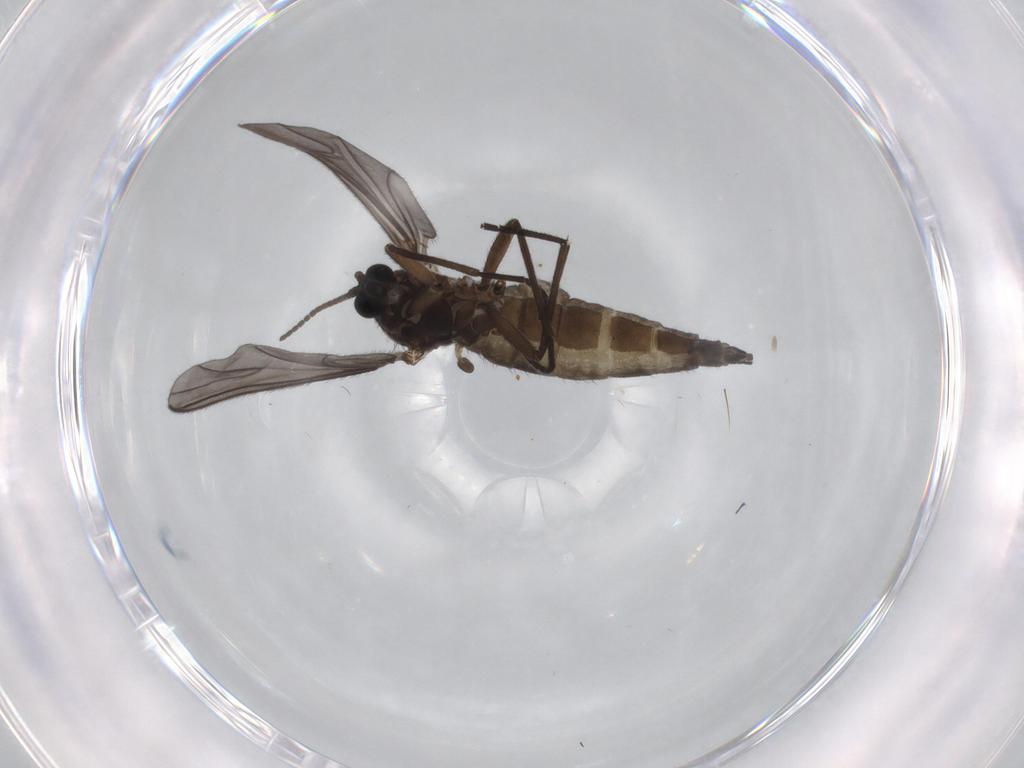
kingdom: Animalia
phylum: Arthropoda
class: Insecta
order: Diptera
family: Sciaridae
